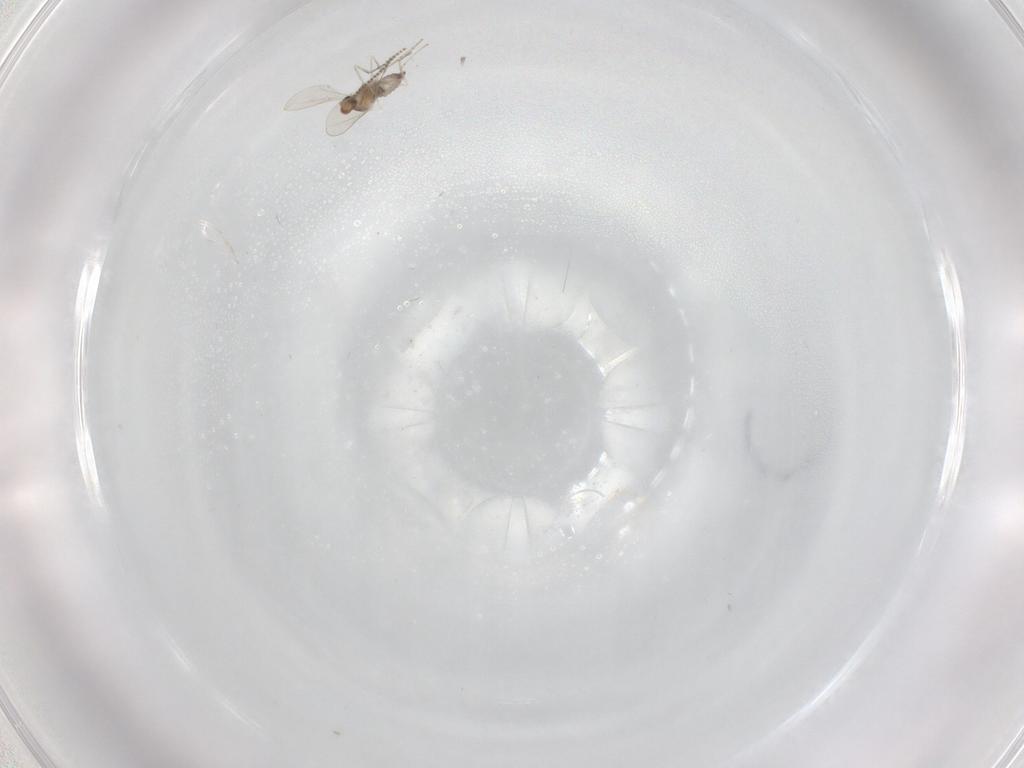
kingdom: Animalia
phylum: Arthropoda
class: Insecta
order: Diptera
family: Cecidomyiidae
